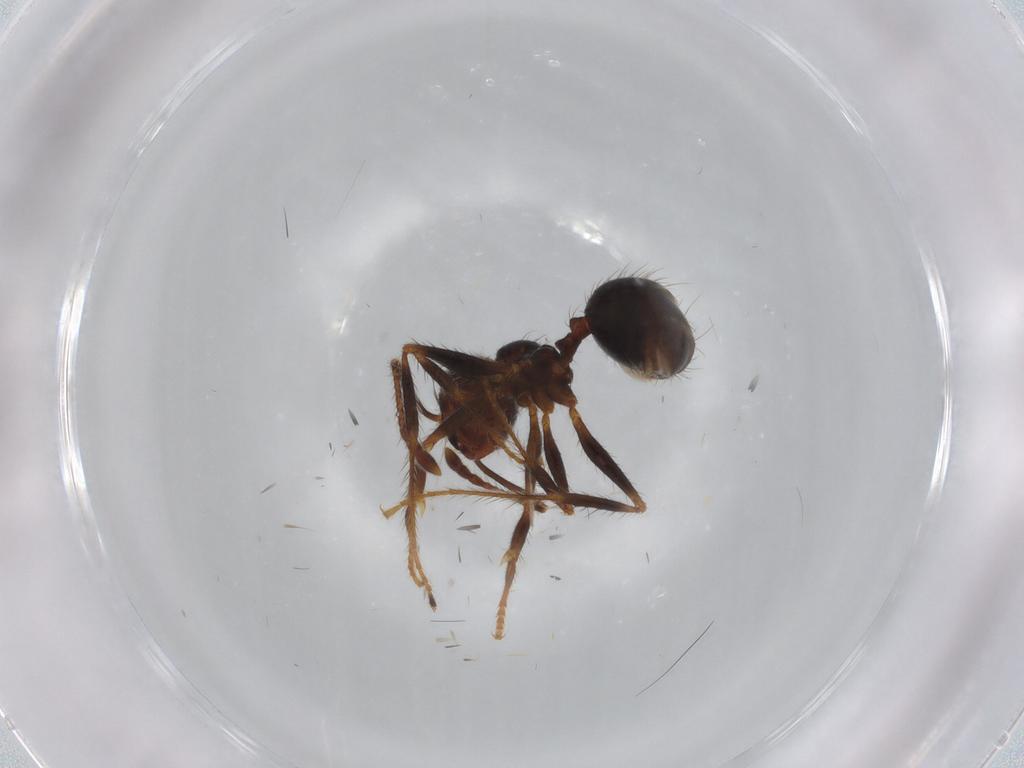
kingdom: Animalia
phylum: Arthropoda
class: Insecta
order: Hymenoptera
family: Formicidae
